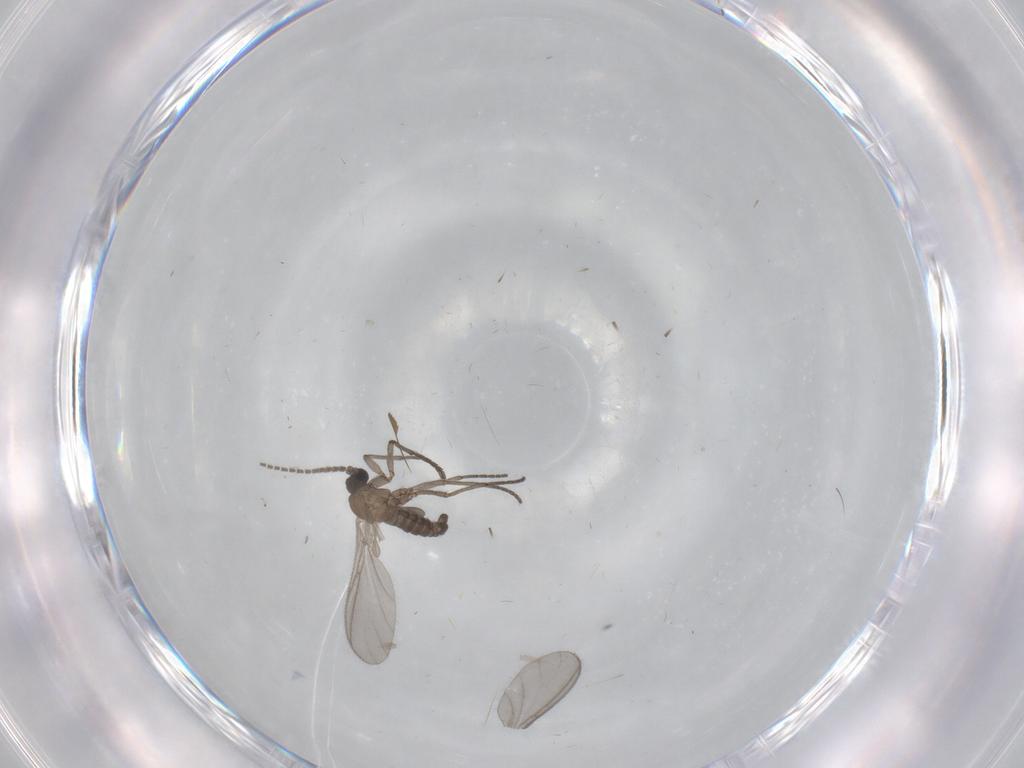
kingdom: Animalia
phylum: Arthropoda
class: Insecta
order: Diptera
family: Sciaridae
